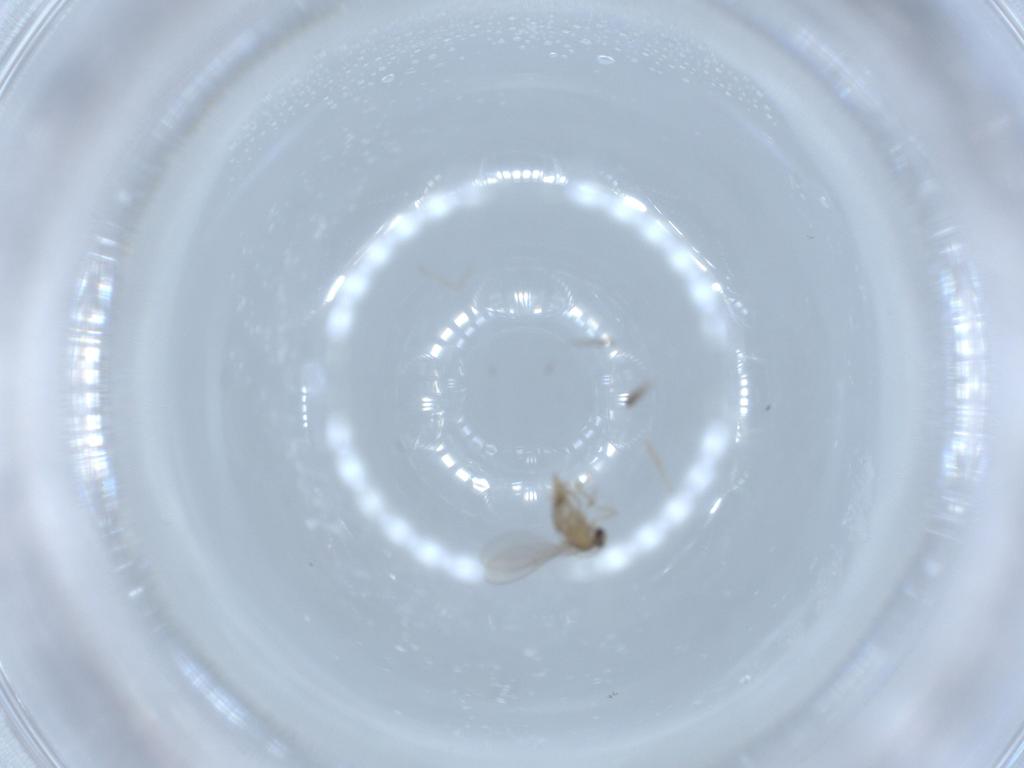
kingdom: Animalia
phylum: Arthropoda
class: Insecta
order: Diptera
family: Cecidomyiidae
